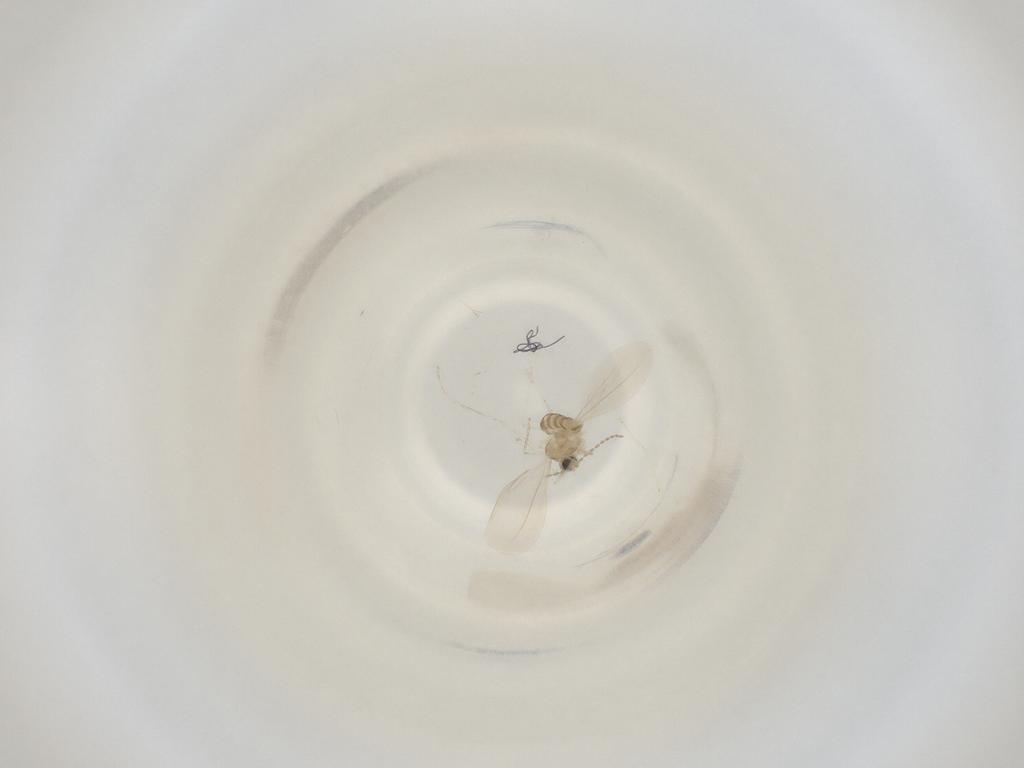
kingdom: Animalia
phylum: Arthropoda
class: Insecta
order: Diptera
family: Cecidomyiidae
